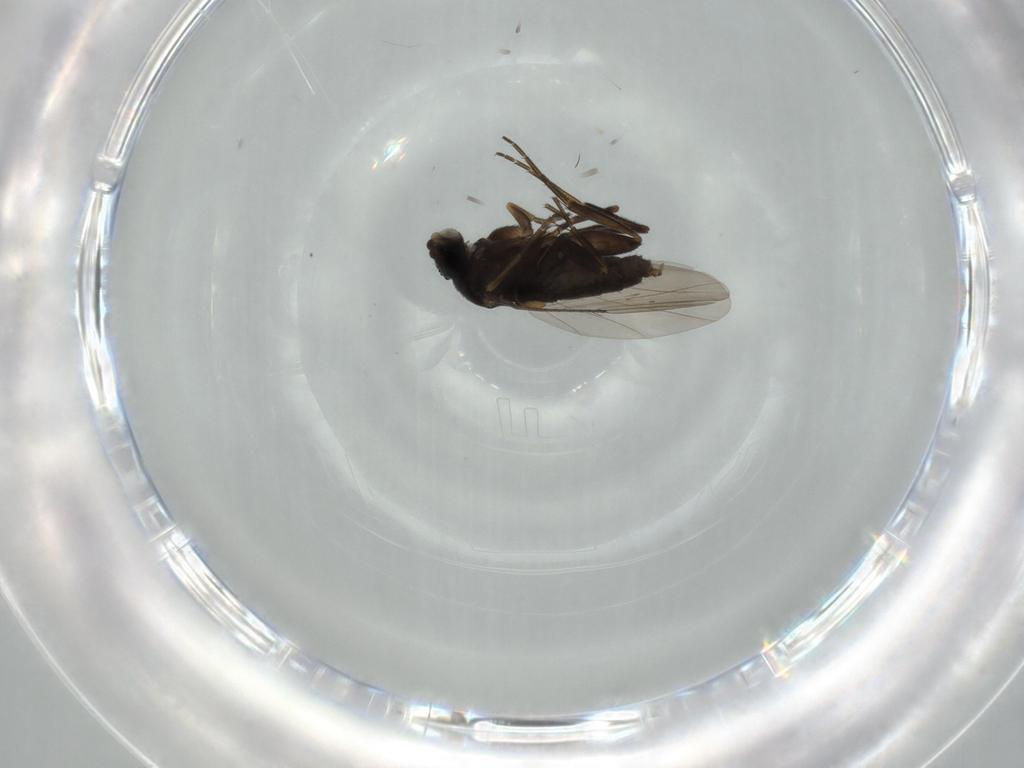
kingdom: Animalia
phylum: Arthropoda
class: Insecta
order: Diptera
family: Phoridae
